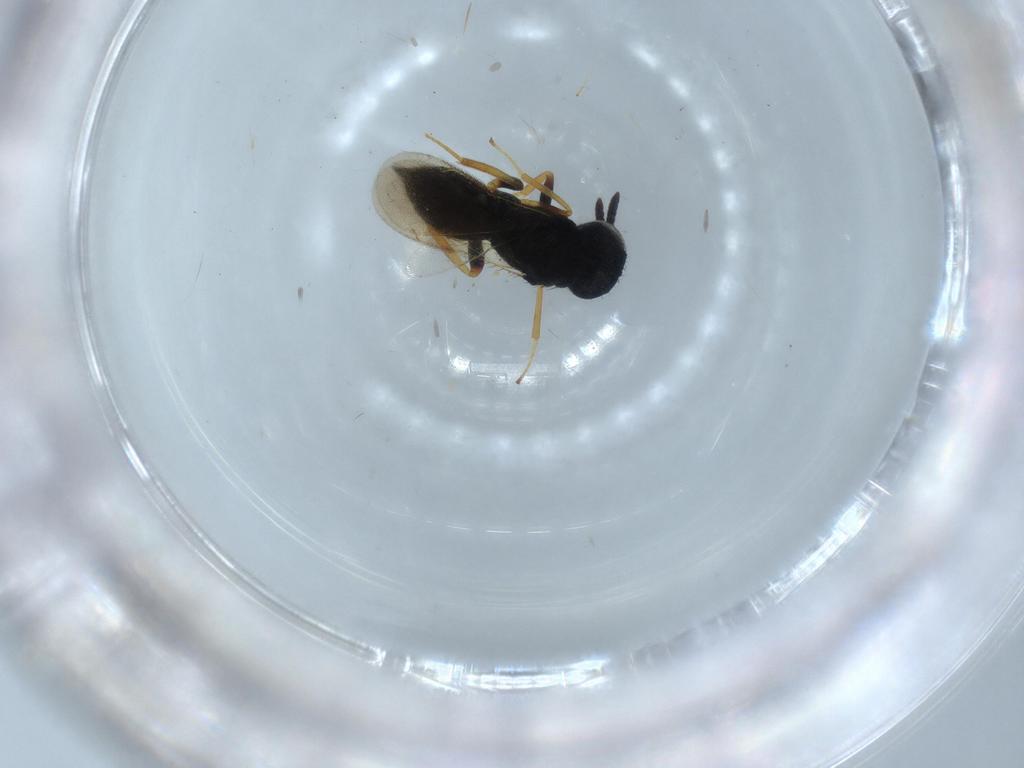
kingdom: Animalia
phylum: Arthropoda
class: Insecta
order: Hymenoptera
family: Pteromalidae
